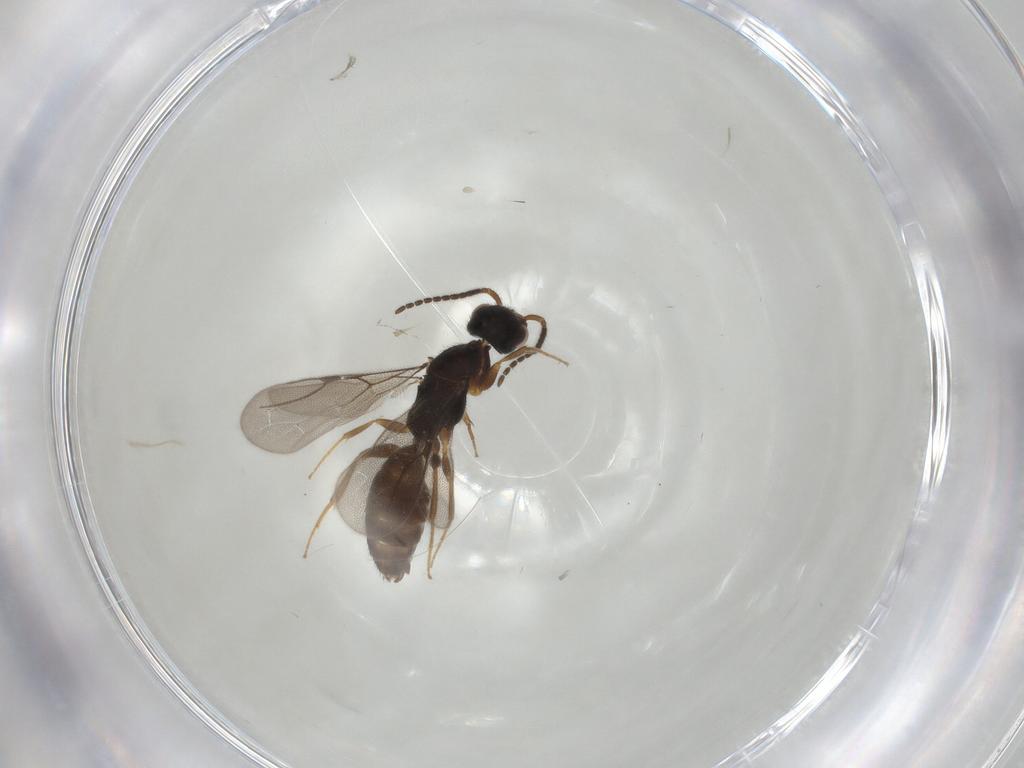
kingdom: Animalia
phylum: Arthropoda
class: Insecta
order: Hymenoptera
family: Bethylidae
